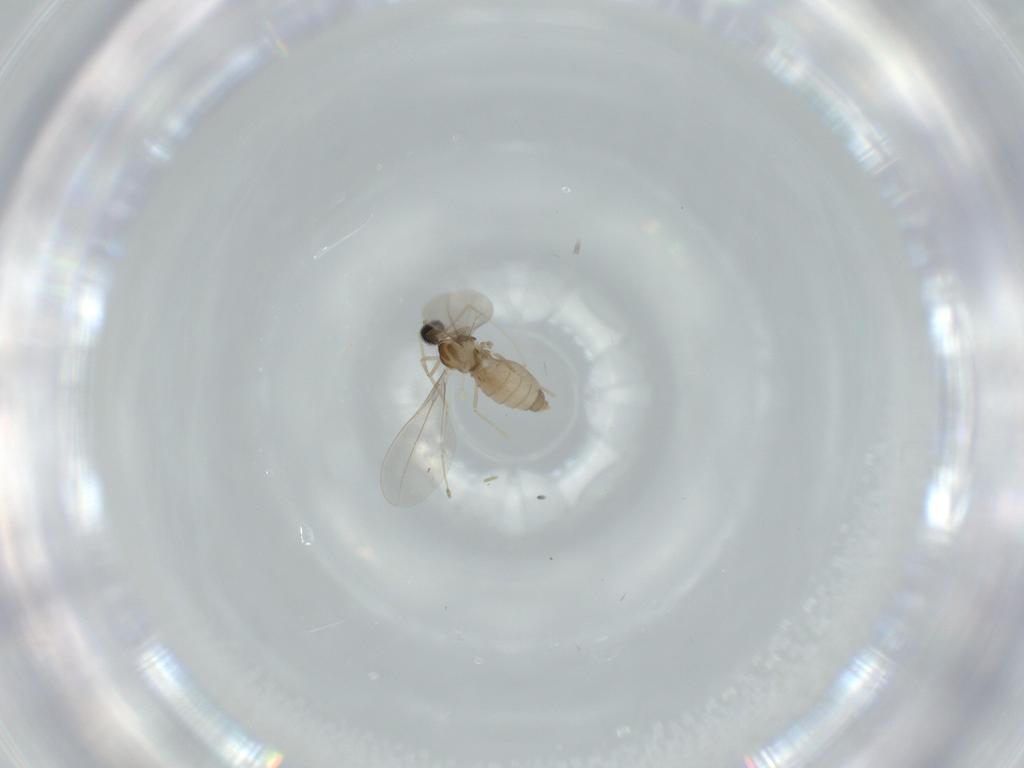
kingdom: Animalia
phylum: Arthropoda
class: Insecta
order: Diptera
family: Cecidomyiidae
